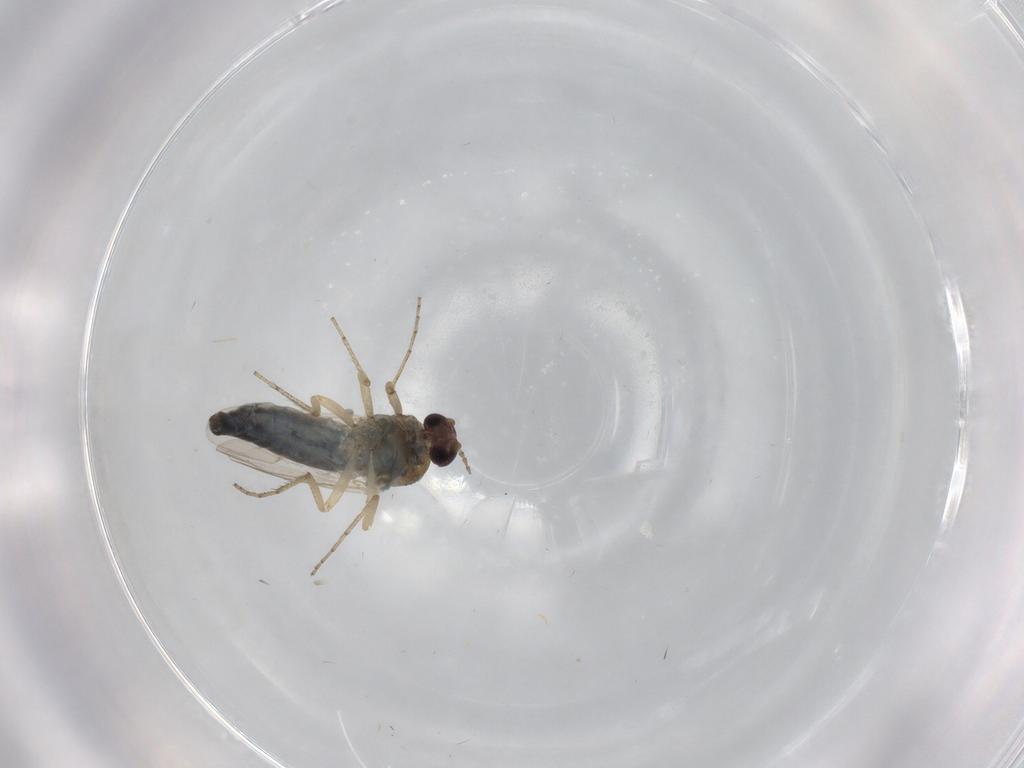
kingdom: Animalia
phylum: Arthropoda
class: Insecta
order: Diptera
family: Ceratopogonidae
